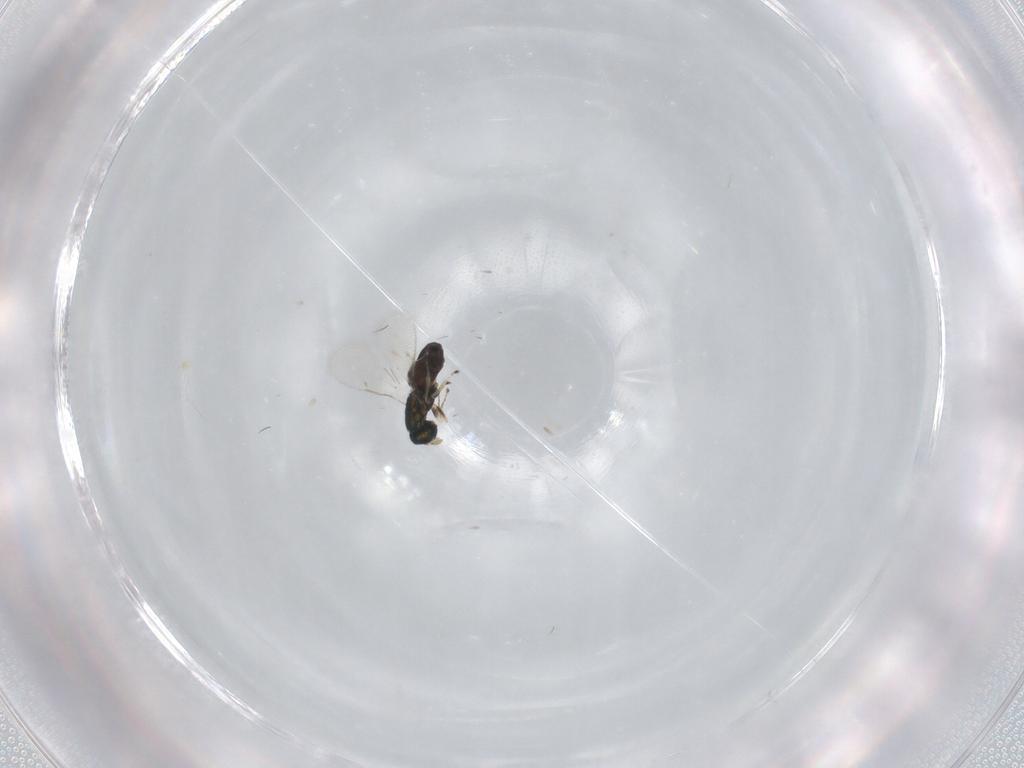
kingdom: Animalia
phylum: Arthropoda
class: Insecta
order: Hymenoptera
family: Eulophidae
